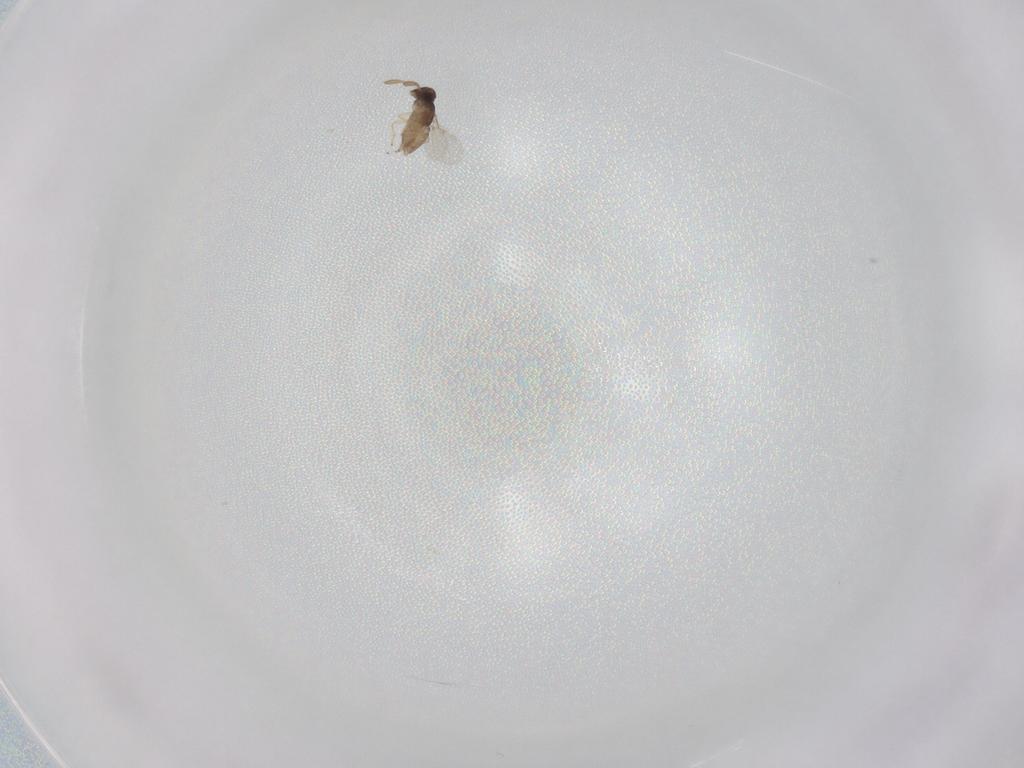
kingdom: Animalia
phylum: Arthropoda
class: Insecta
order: Hymenoptera
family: Encyrtidae
